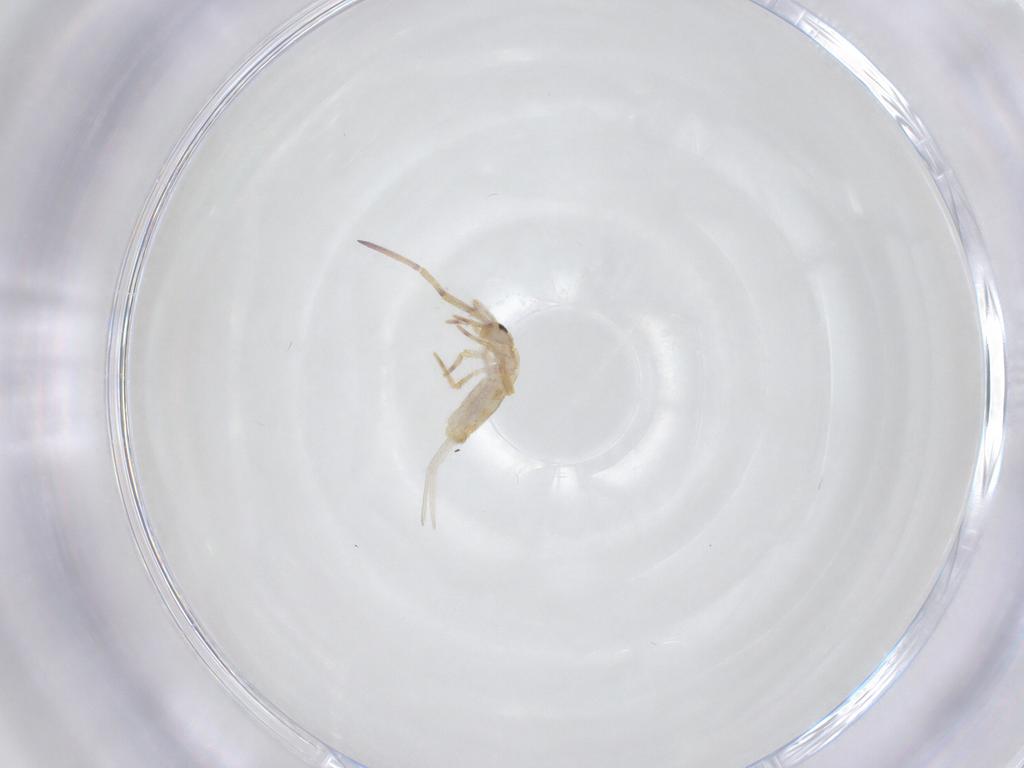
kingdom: Animalia
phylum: Arthropoda
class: Collembola
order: Entomobryomorpha
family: Entomobryidae
